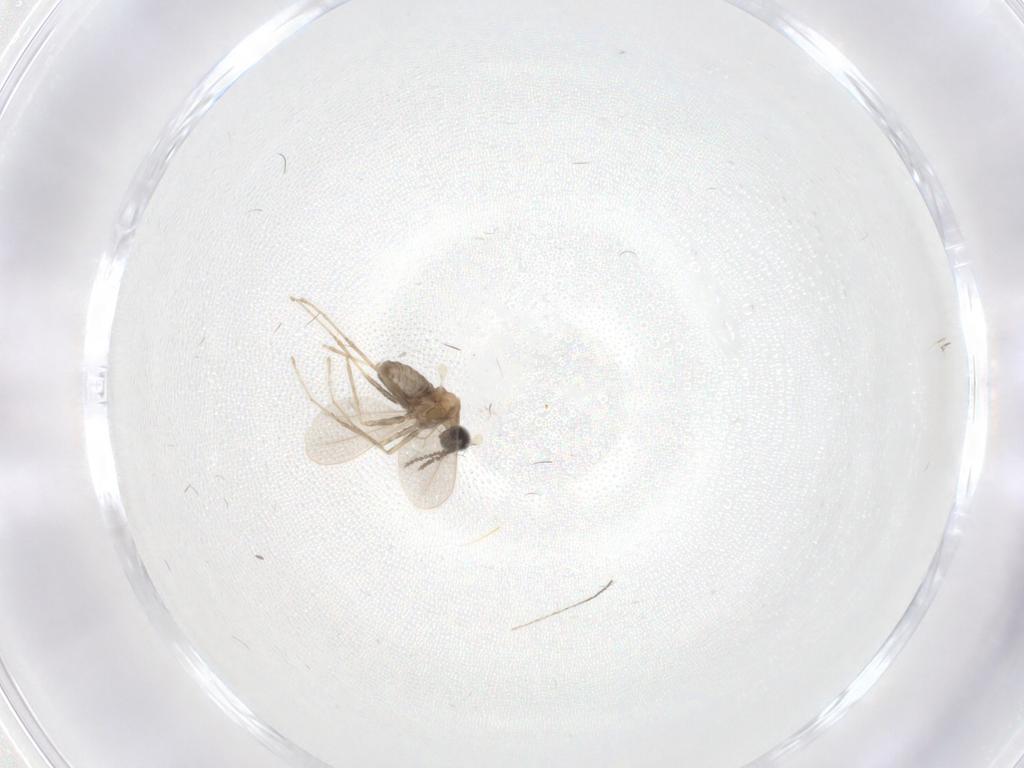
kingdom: Animalia
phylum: Arthropoda
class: Insecta
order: Diptera
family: Cecidomyiidae
